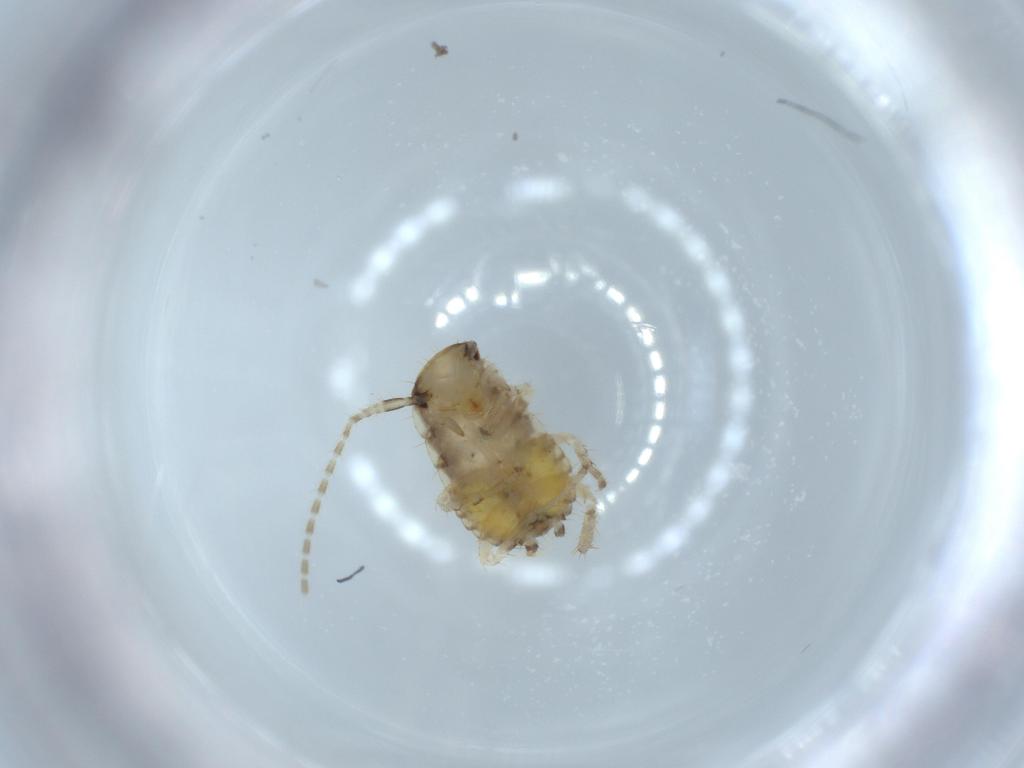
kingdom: Animalia
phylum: Arthropoda
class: Insecta
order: Blattodea
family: Ectobiidae
